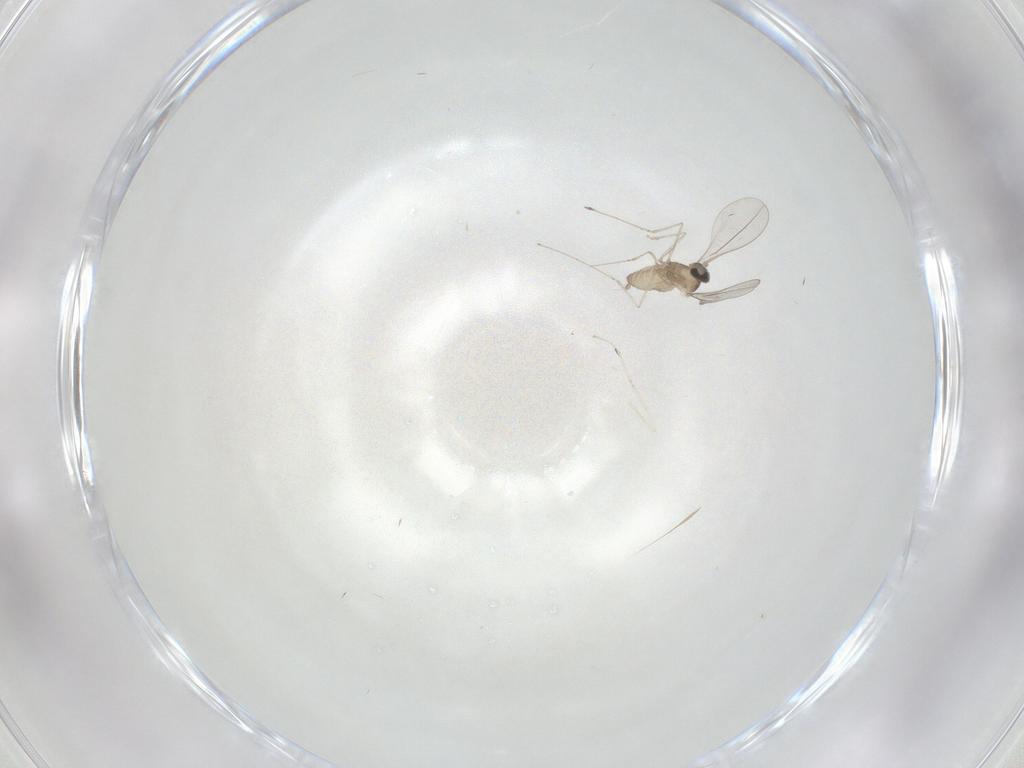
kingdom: Animalia
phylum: Arthropoda
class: Insecta
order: Diptera
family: Cecidomyiidae
